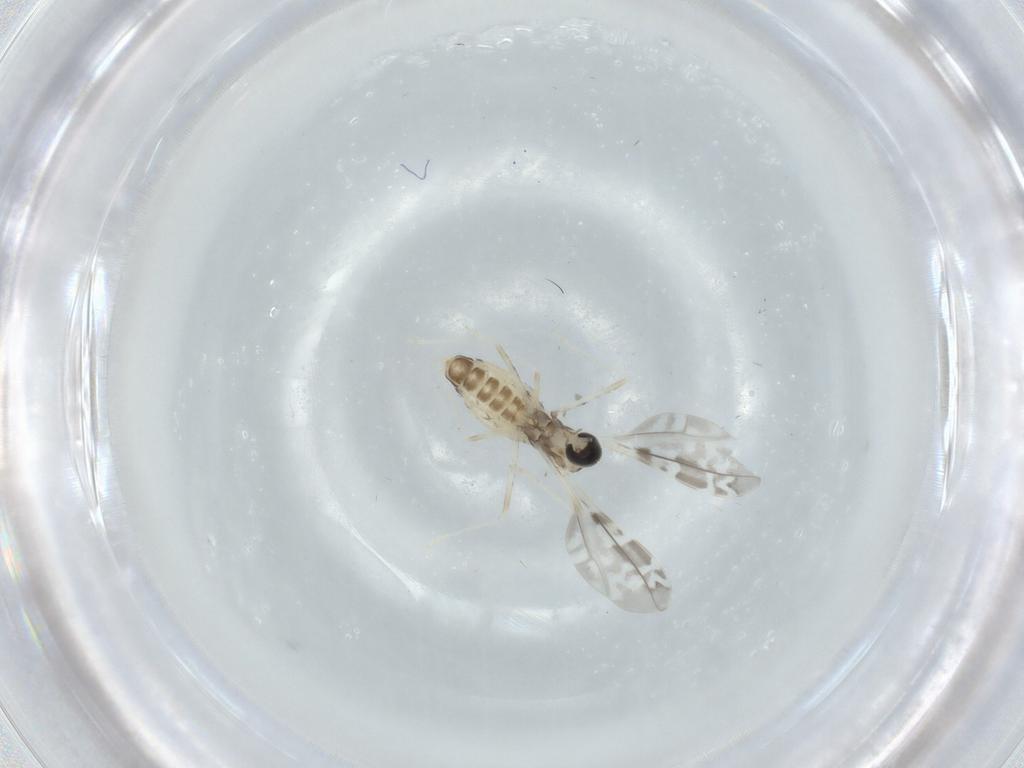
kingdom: Animalia
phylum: Arthropoda
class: Insecta
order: Diptera
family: Cecidomyiidae
